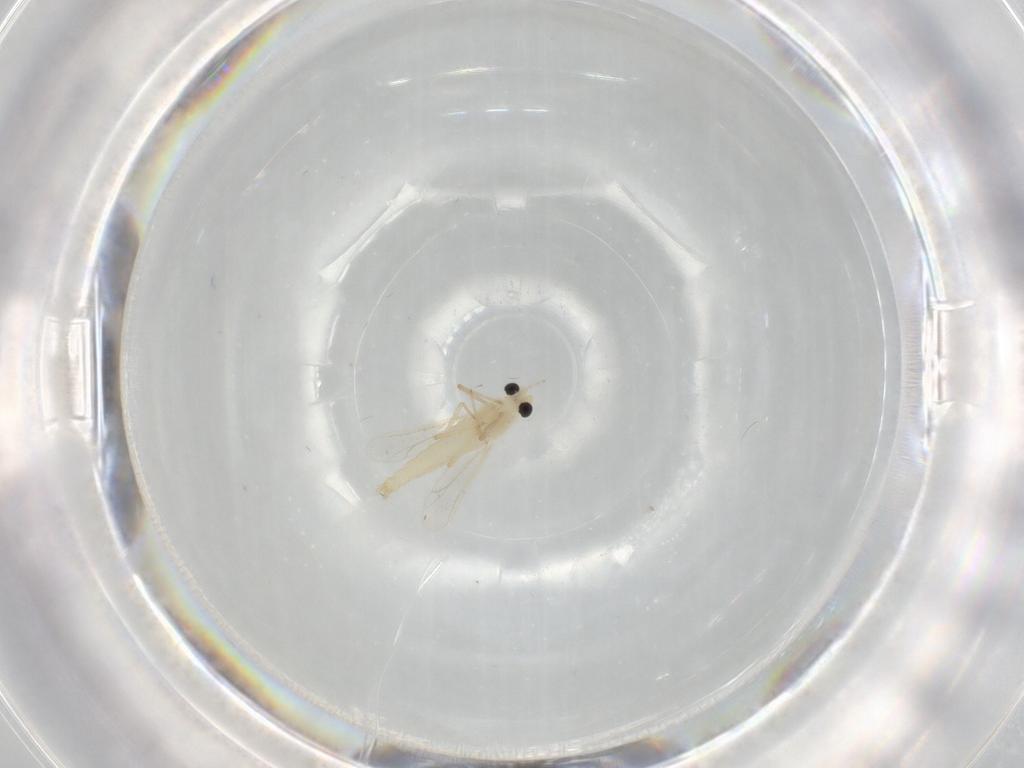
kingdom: Animalia
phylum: Arthropoda
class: Insecta
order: Diptera
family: Chironomidae
